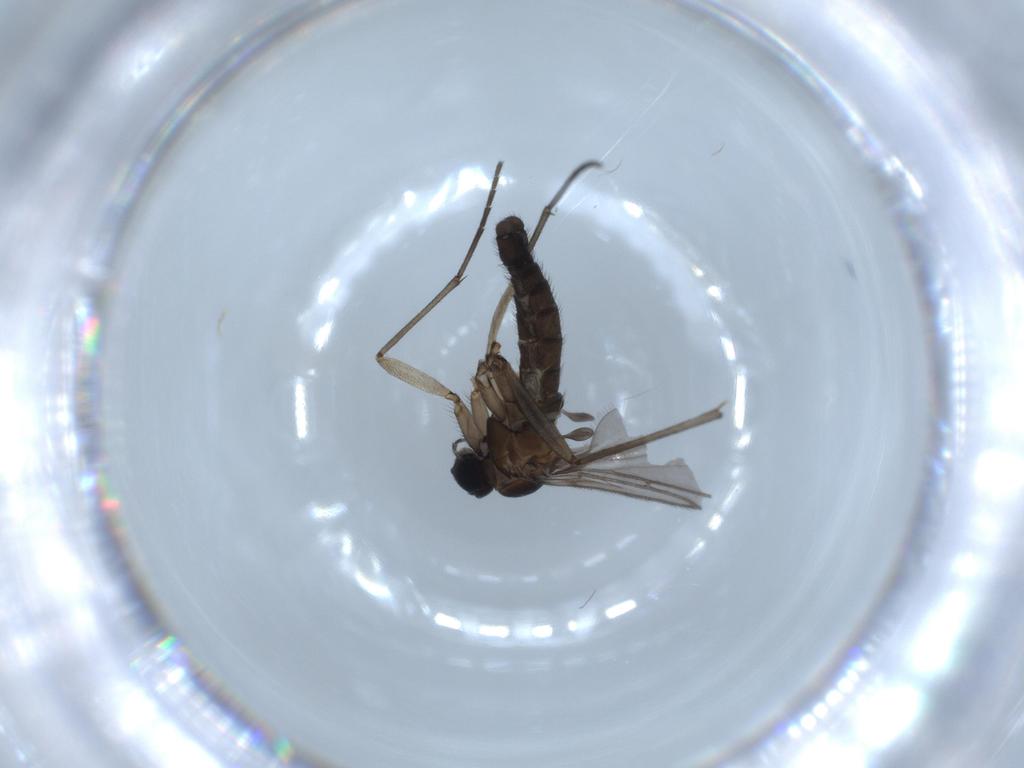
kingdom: Animalia
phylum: Arthropoda
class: Insecta
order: Diptera
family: Sciaridae
